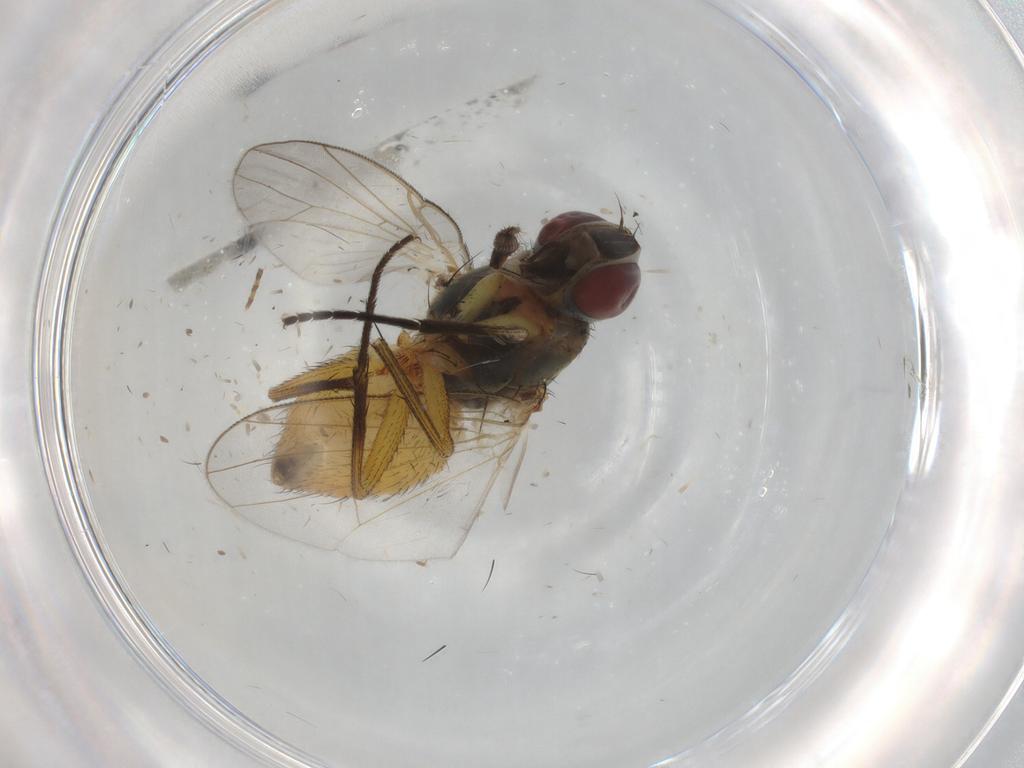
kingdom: Animalia
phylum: Arthropoda
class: Insecta
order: Diptera
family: Muscidae
